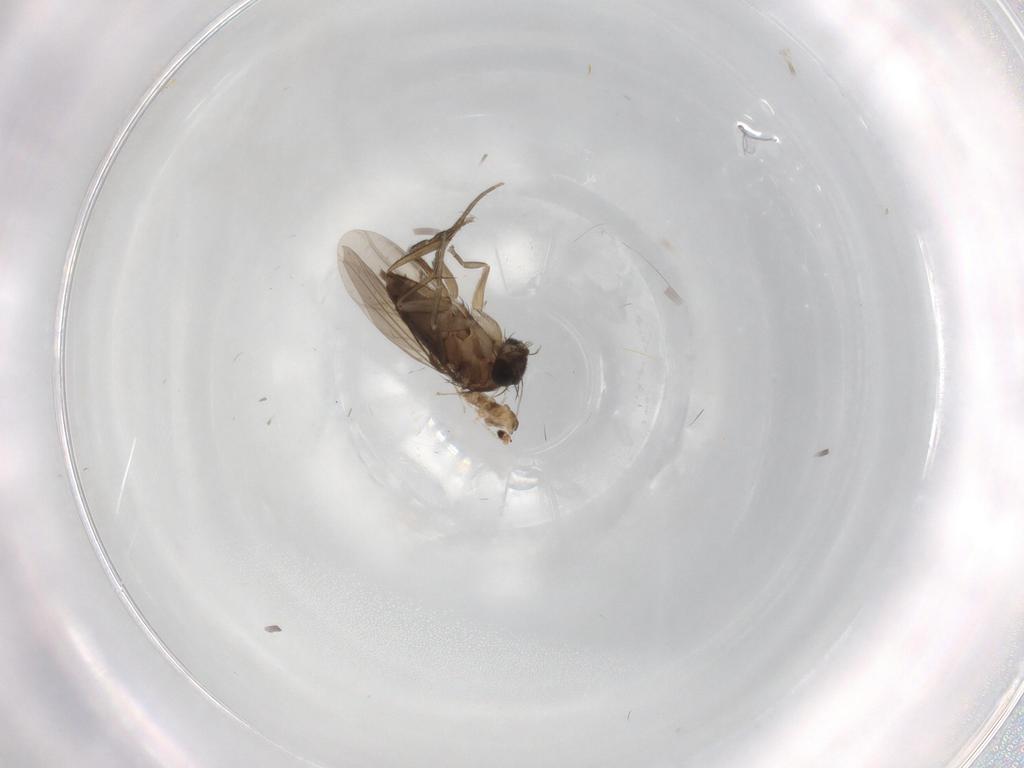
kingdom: Animalia
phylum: Arthropoda
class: Insecta
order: Diptera
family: Cecidomyiidae
